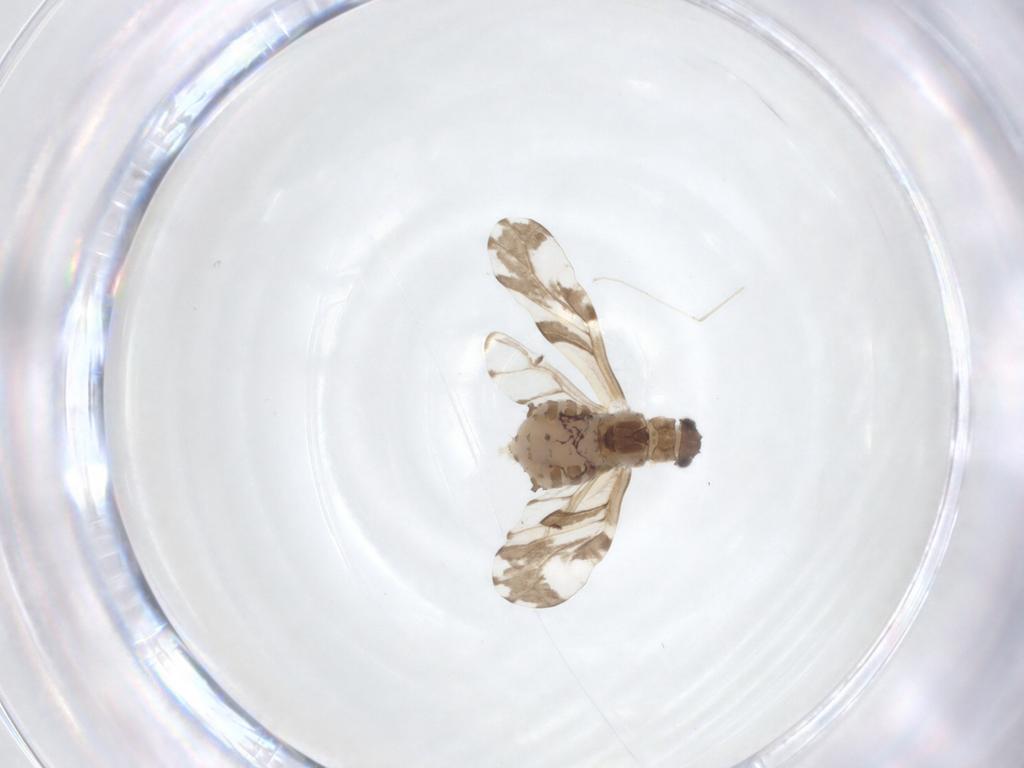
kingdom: Animalia
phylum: Arthropoda
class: Insecta
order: Hemiptera
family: Aphididae
